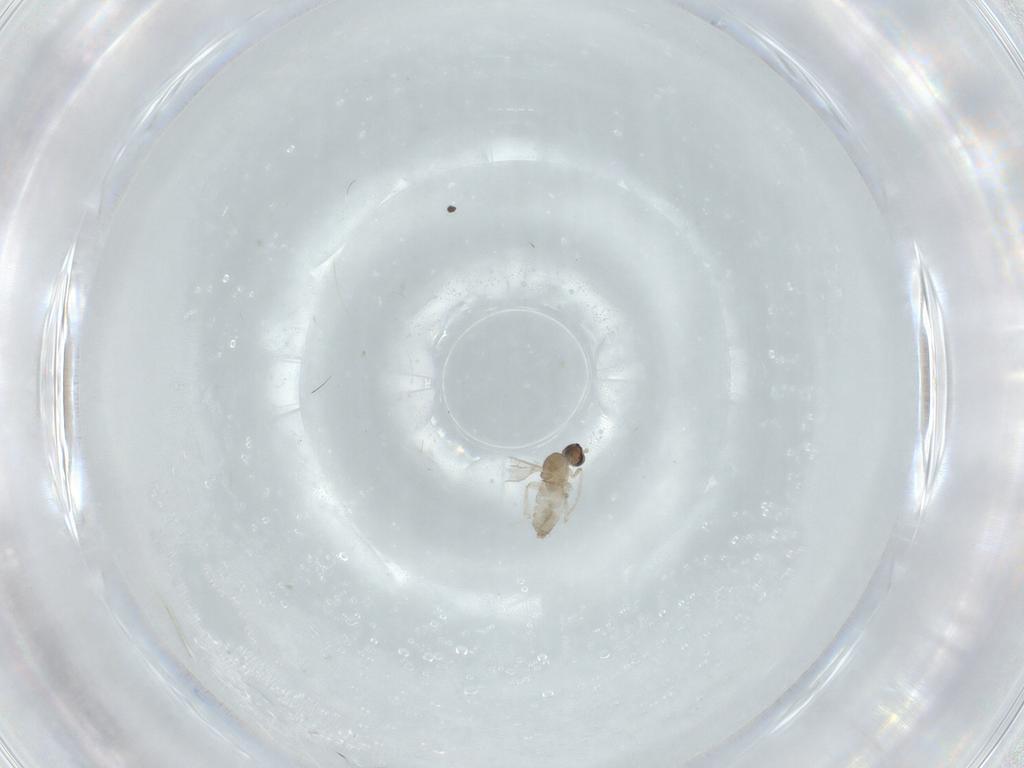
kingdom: Animalia
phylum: Arthropoda
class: Insecta
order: Diptera
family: Cecidomyiidae
